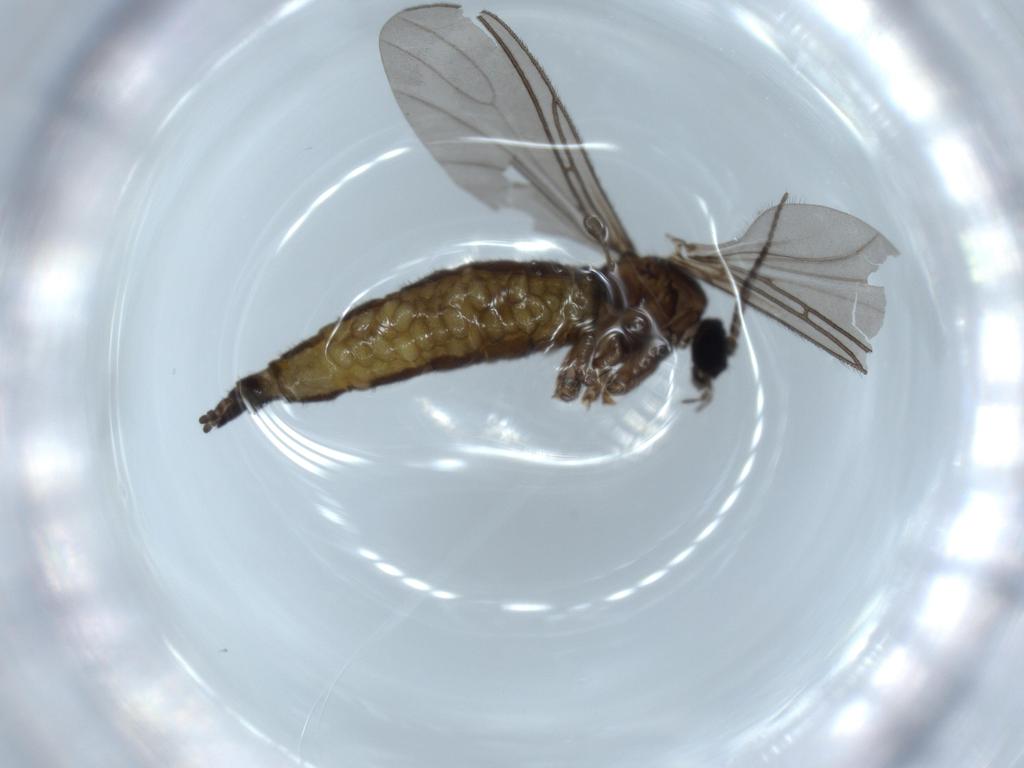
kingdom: Animalia
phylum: Arthropoda
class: Insecta
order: Diptera
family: Sciaridae
